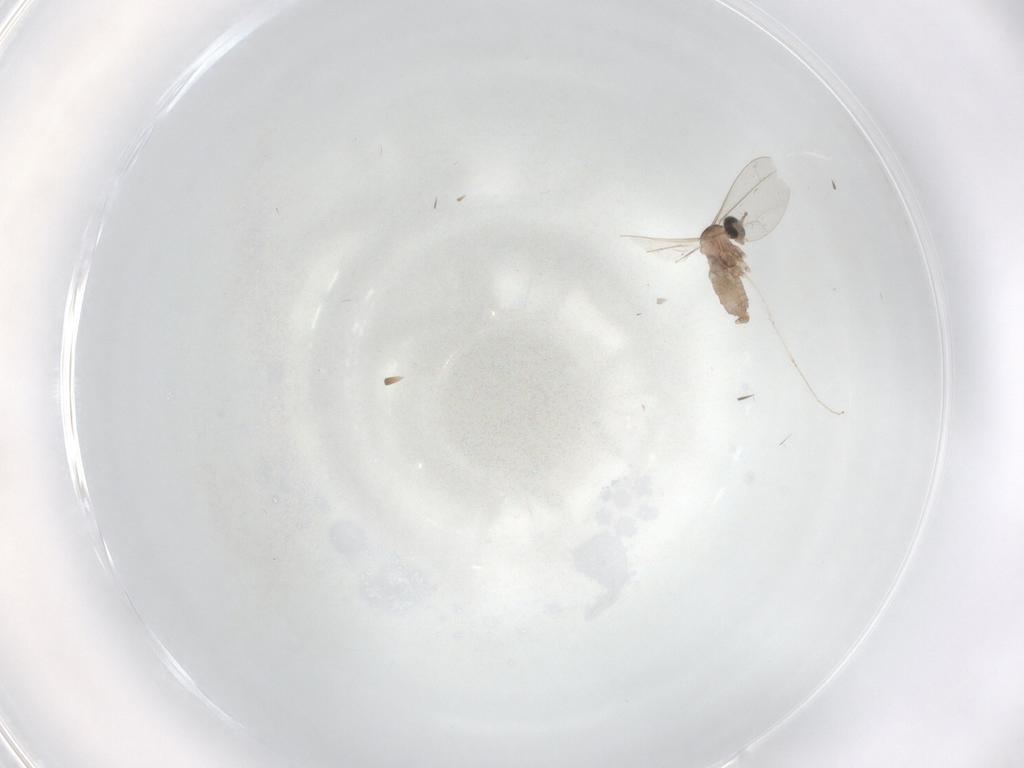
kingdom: Animalia
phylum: Arthropoda
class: Insecta
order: Diptera
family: Cecidomyiidae
